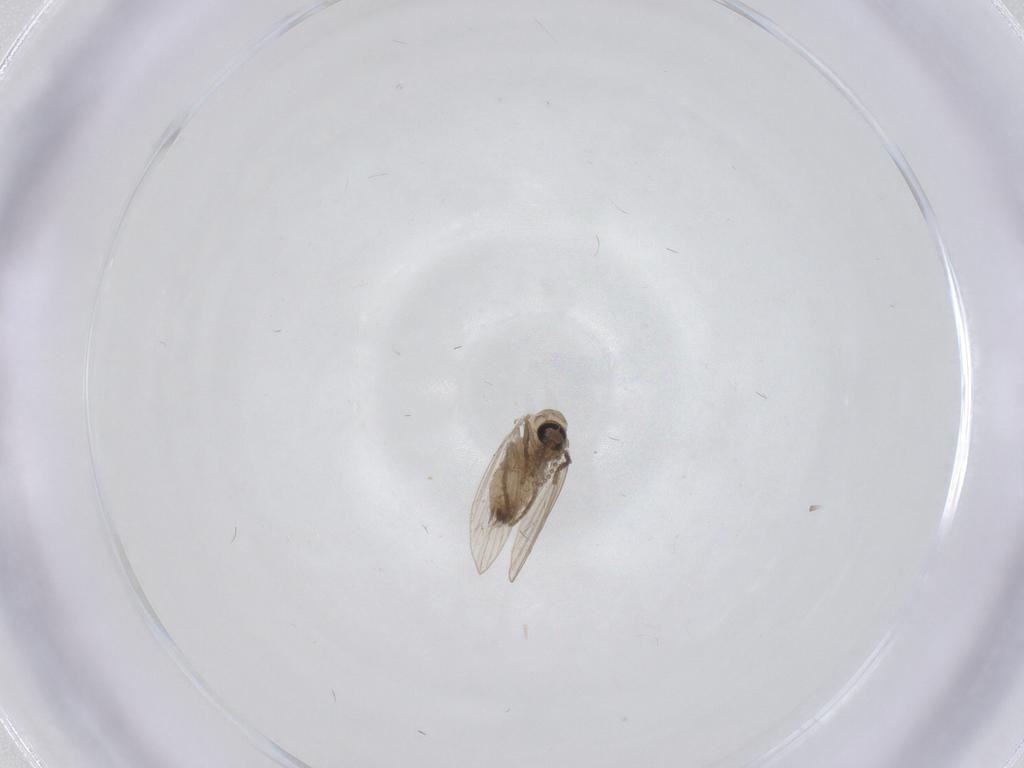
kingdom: Animalia
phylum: Arthropoda
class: Insecta
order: Diptera
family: Psychodidae
